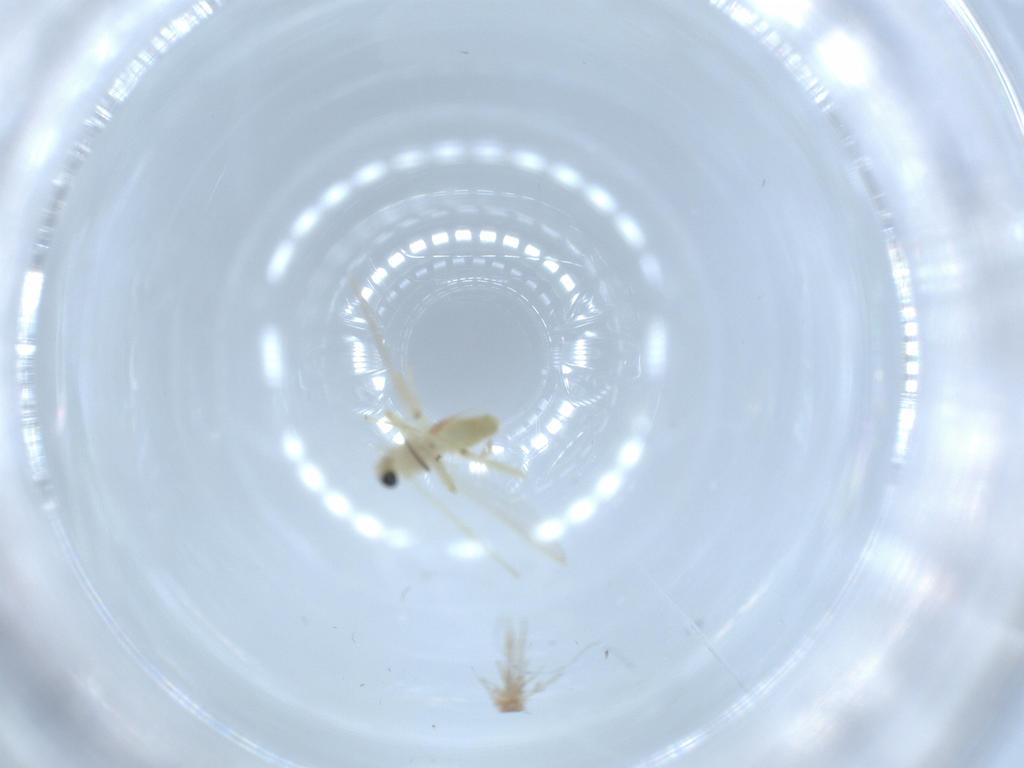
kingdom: Animalia
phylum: Arthropoda
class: Insecta
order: Diptera
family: Chironomidae
